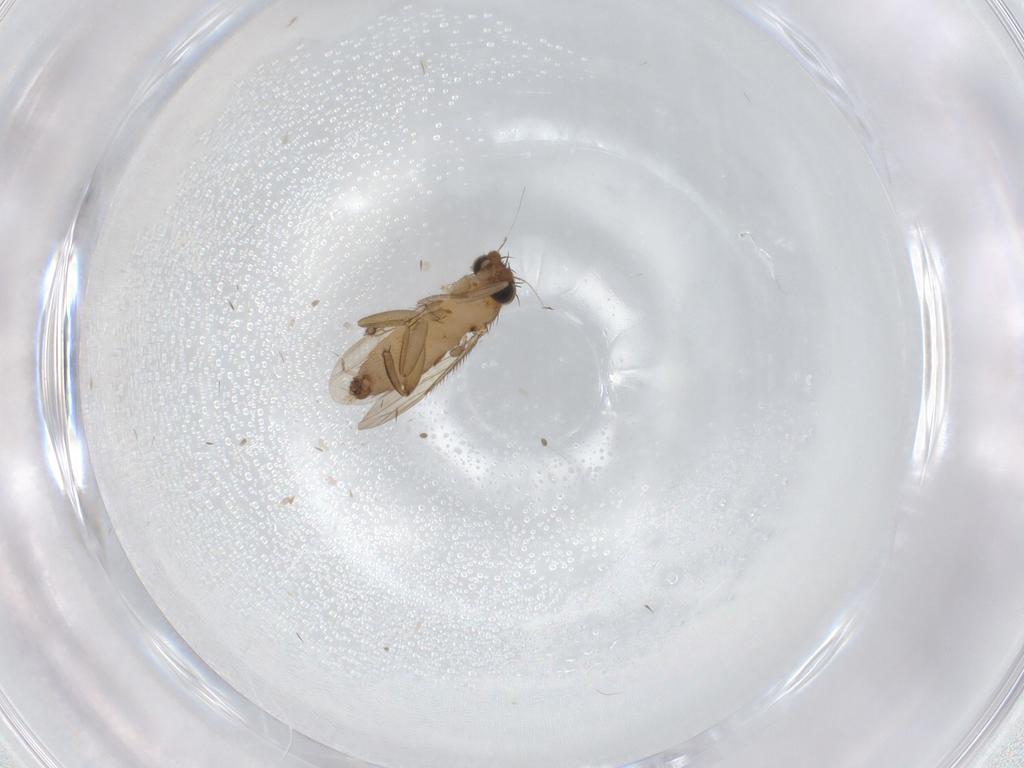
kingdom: Animalia
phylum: Arthropoda
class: Insecta
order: Diptera
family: Phoridae
